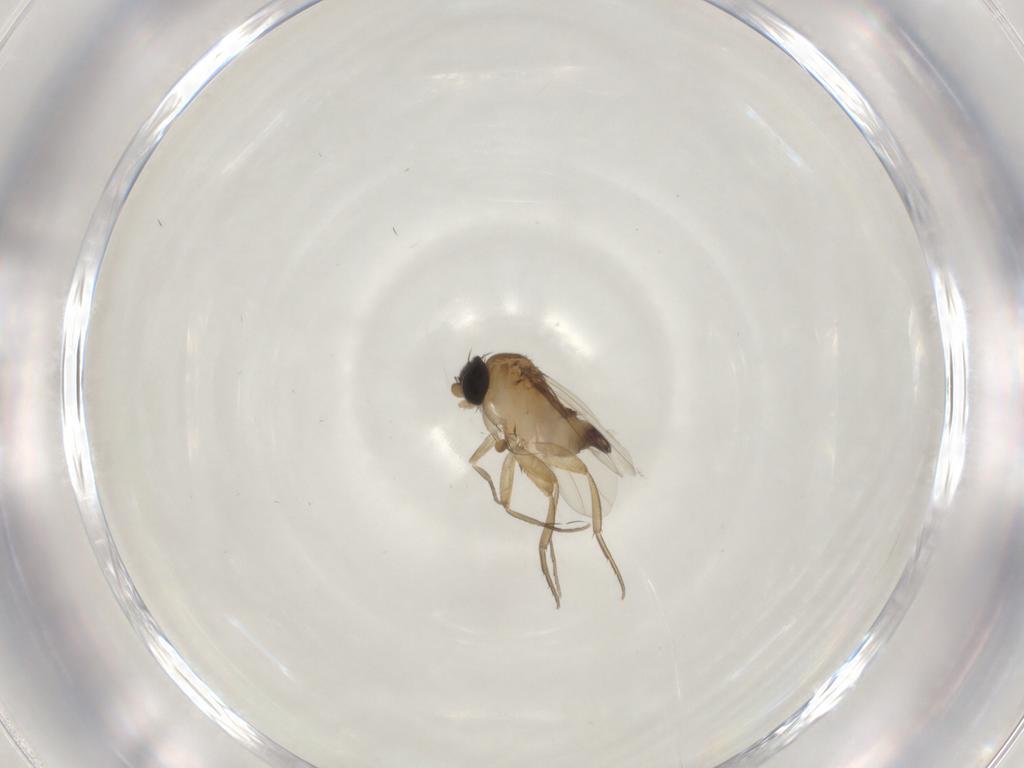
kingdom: Animalia
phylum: Arthropoda
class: Insecta
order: Diptera
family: Phoridae
